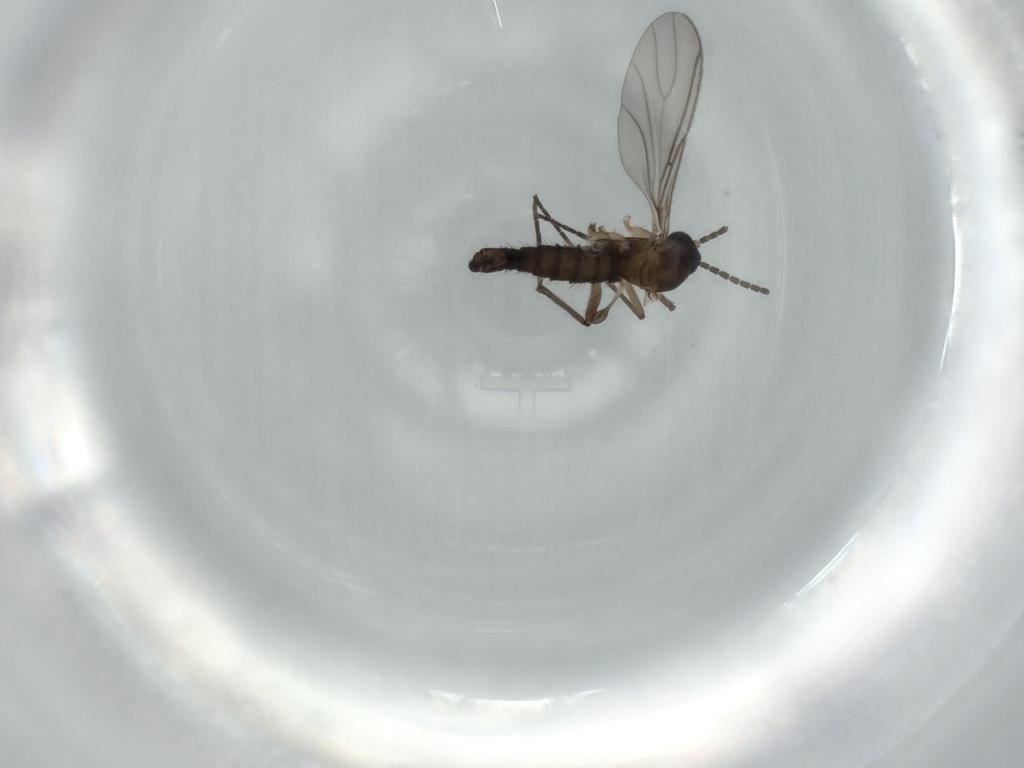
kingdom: Animalia
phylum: Arthropoda
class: Insecta
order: Diptera
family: Sciaridae
